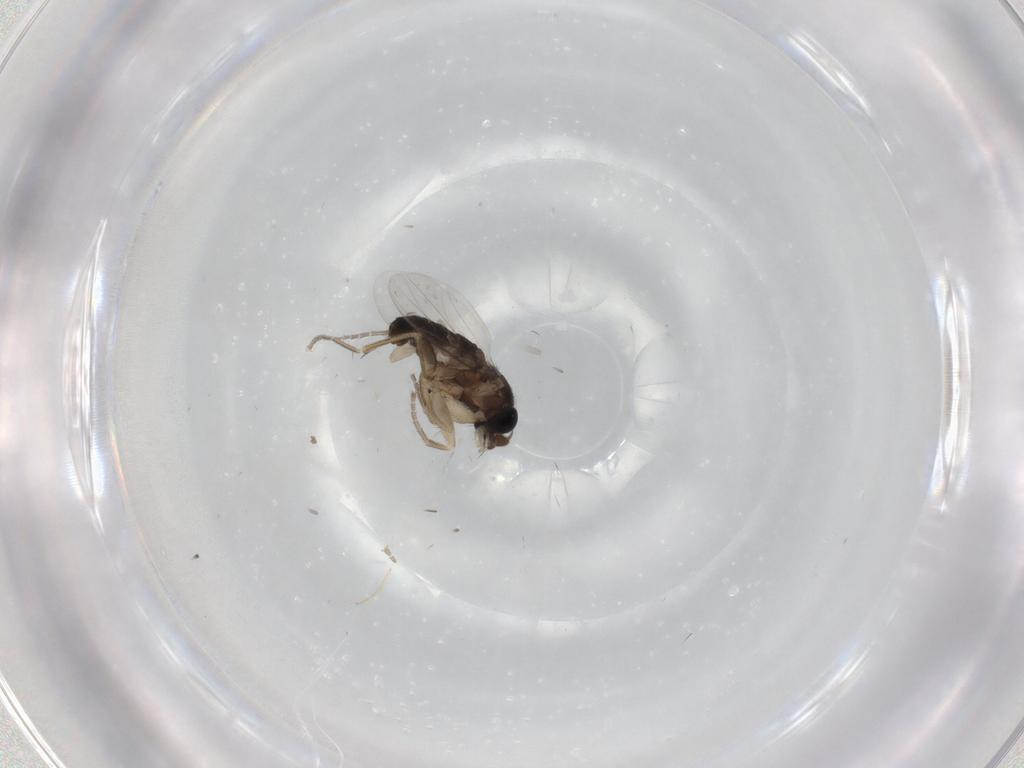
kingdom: Animalia
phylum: Arthropoda
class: Insecta
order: Diptera
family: Phoridae
